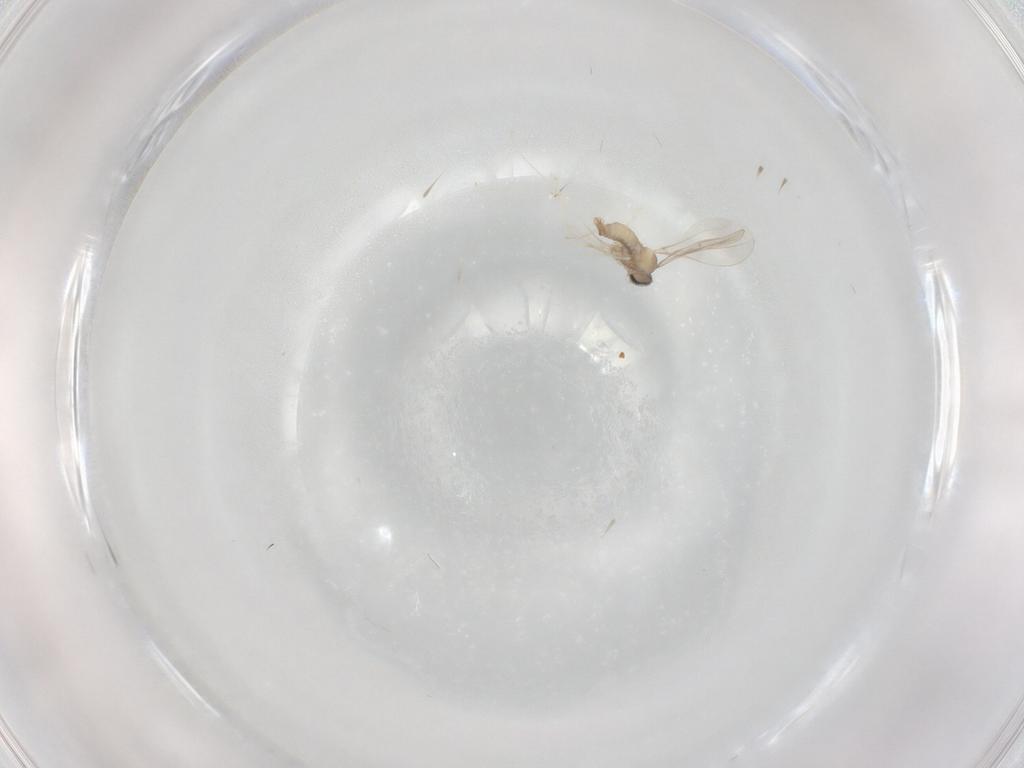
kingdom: Animalia
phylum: Arthropoda
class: Insecta
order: Diptera
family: Cecidomyiidae
